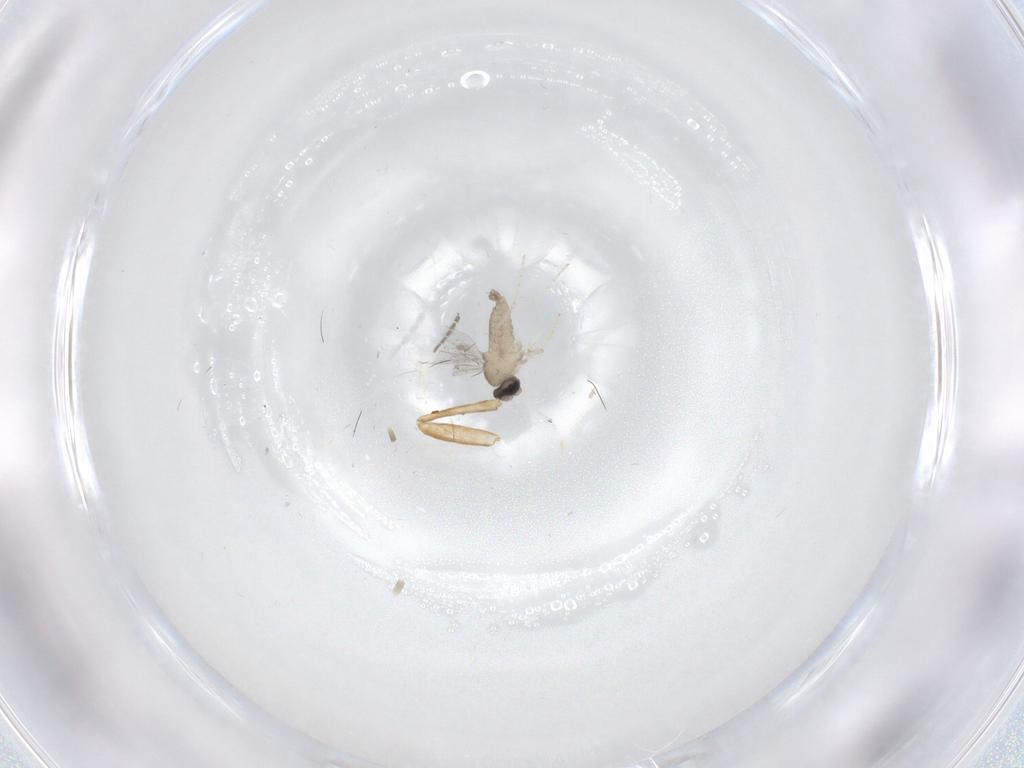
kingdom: Animalia
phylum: Arthropoda
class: Insecta
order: Diptera
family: Cecidomyiidae
